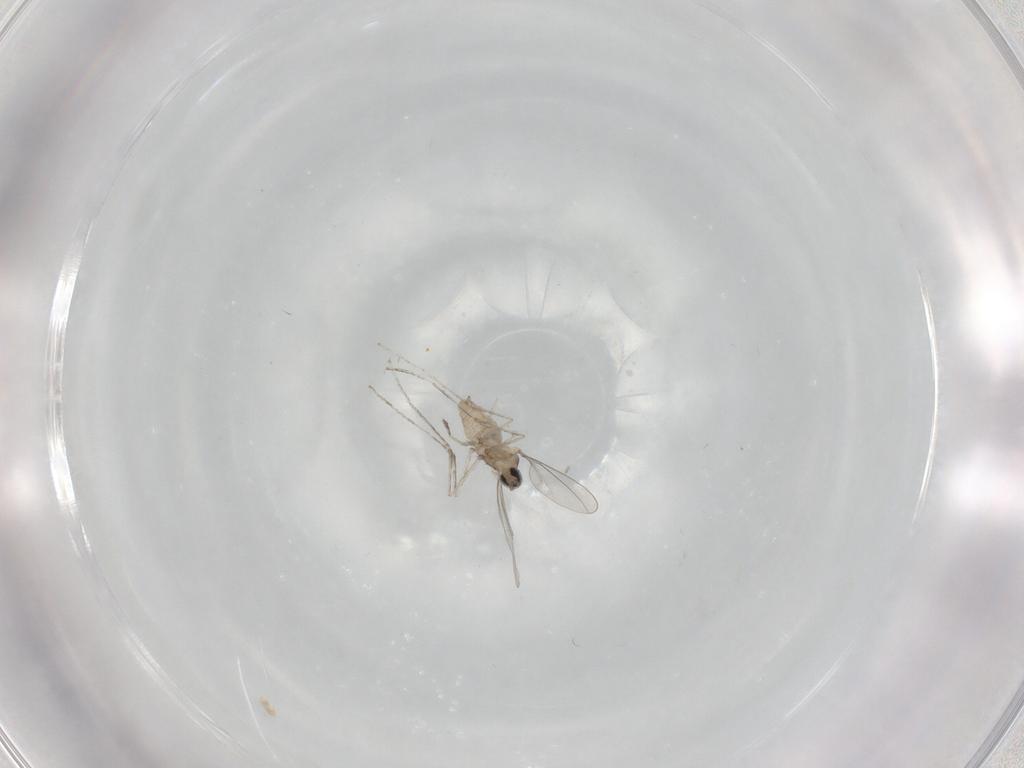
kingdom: Animalia
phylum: Arthropoda
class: Insecta
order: Diptera
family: Cecidomyiidae
